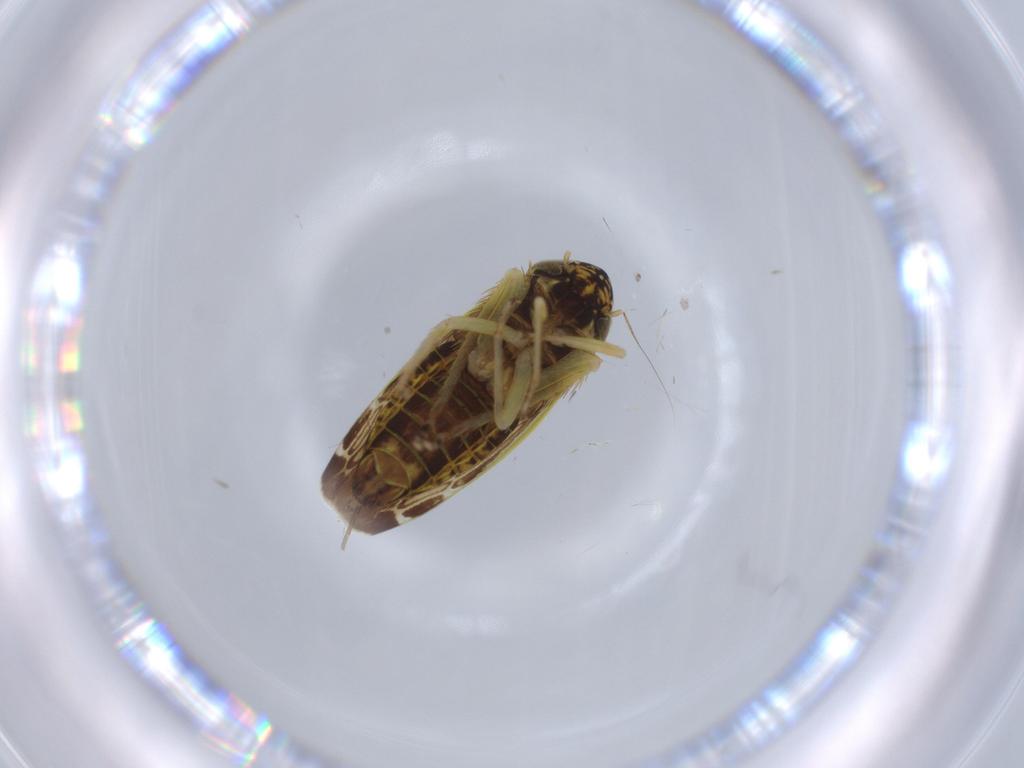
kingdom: Animalia
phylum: Arthropoda
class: Insecta
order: Hemiptera
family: Cicadellidae
